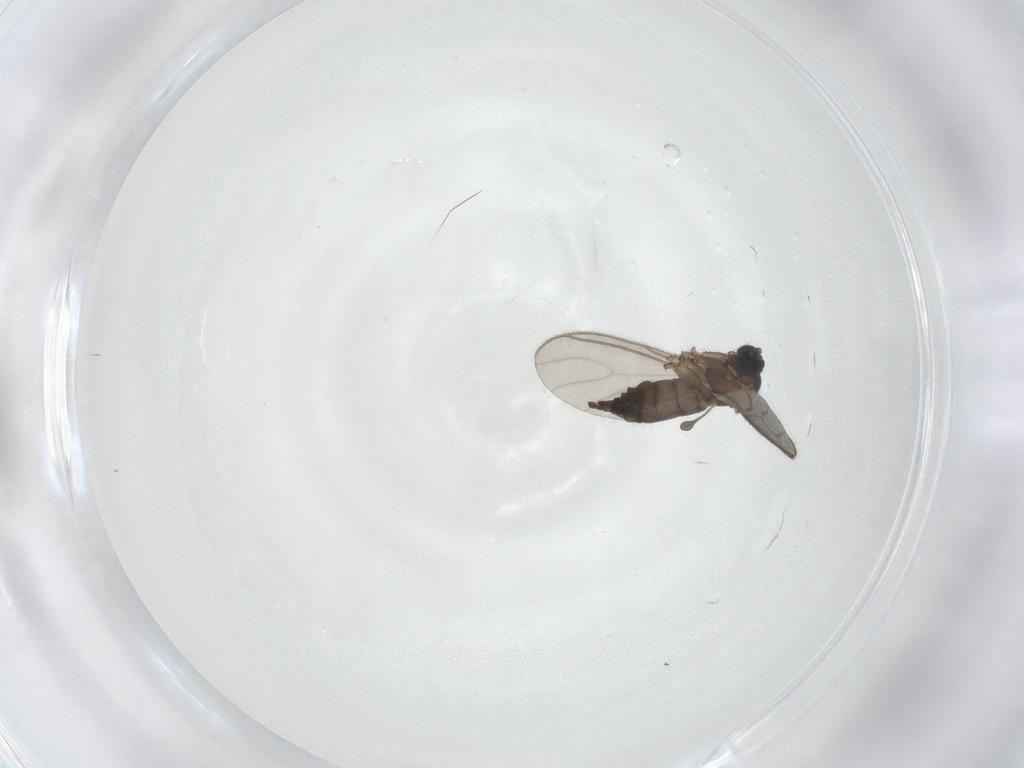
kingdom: Animalia
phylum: Arthropoda
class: Insecta
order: Diptera
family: Sciaridae
